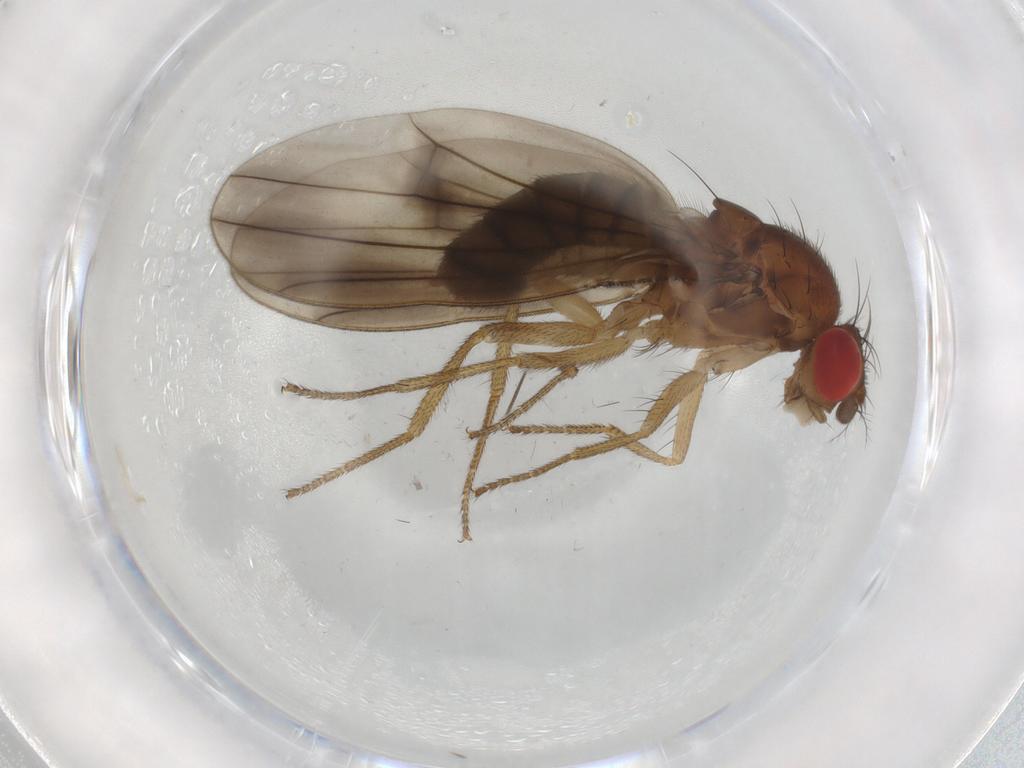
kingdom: Animalia
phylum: Arthropoda
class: Insecta
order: Diptera
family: Drosophilidae
